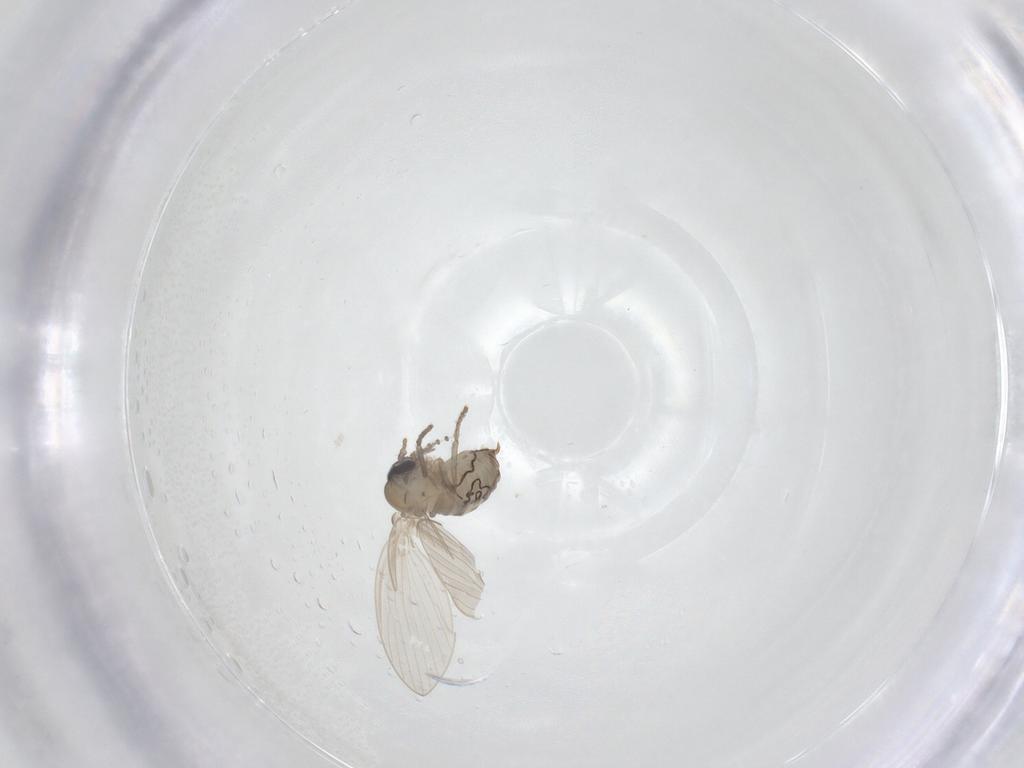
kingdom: Animalia
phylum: Arthropoda
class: Insecta
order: Diptera
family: Psychodidae
